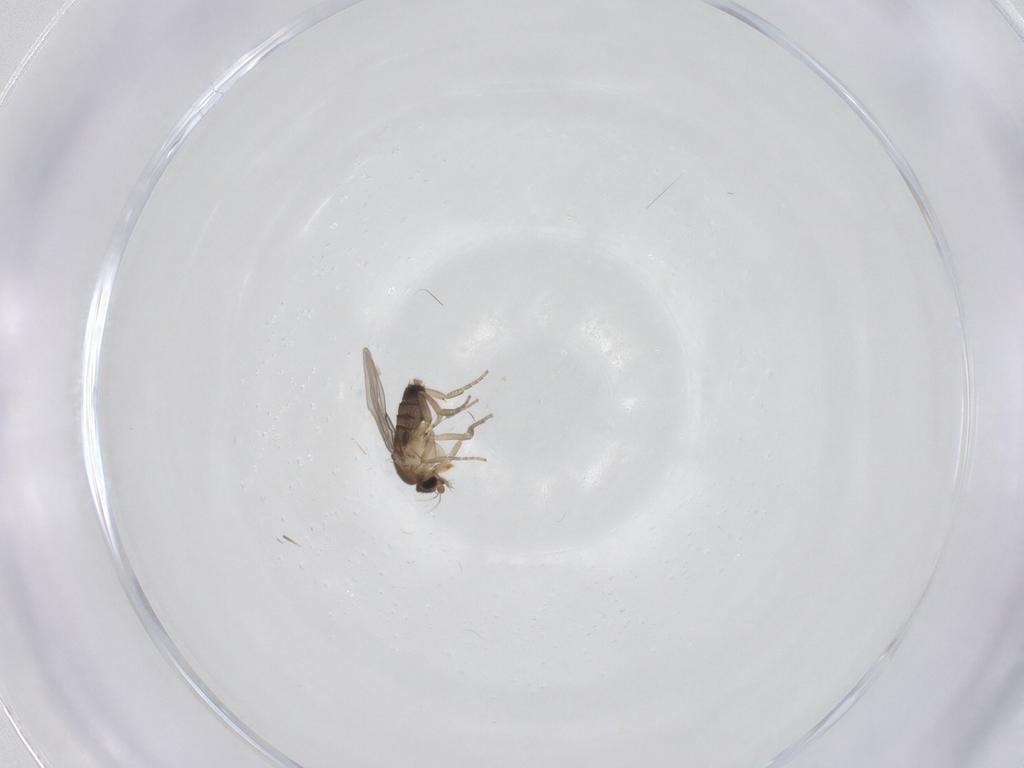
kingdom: Animalia
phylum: Arthropoda
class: Insecta
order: Diptera
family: Phoridae
